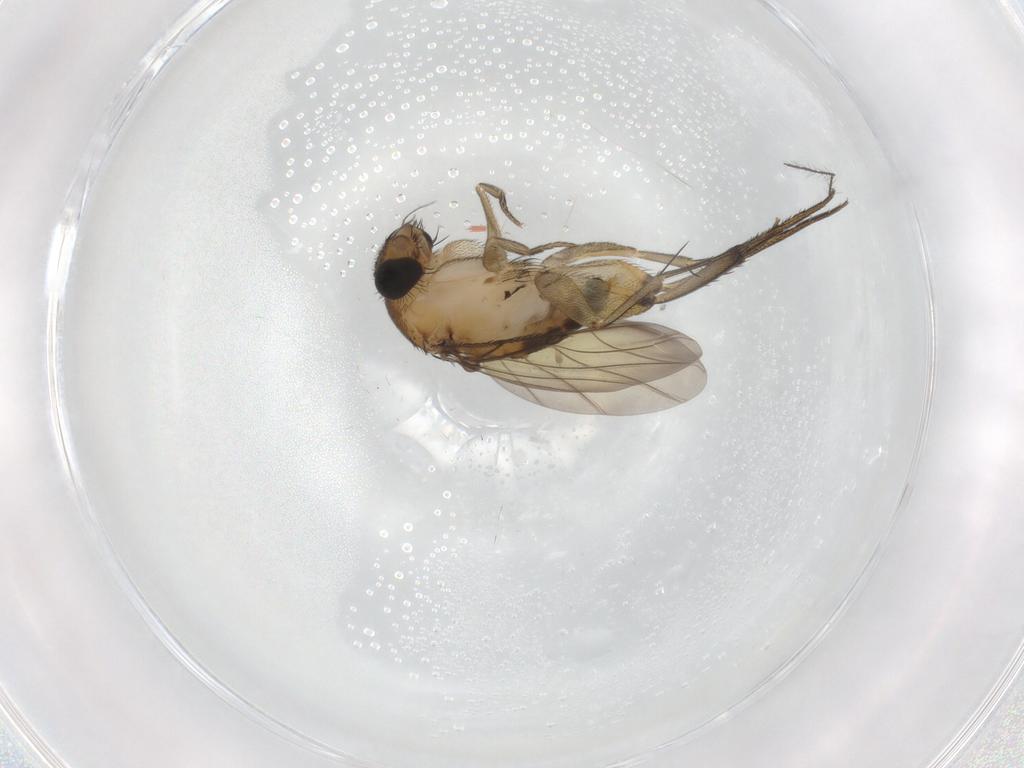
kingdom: Animalia
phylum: Arthropoda
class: Insecta
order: Diptera
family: Phoridae
